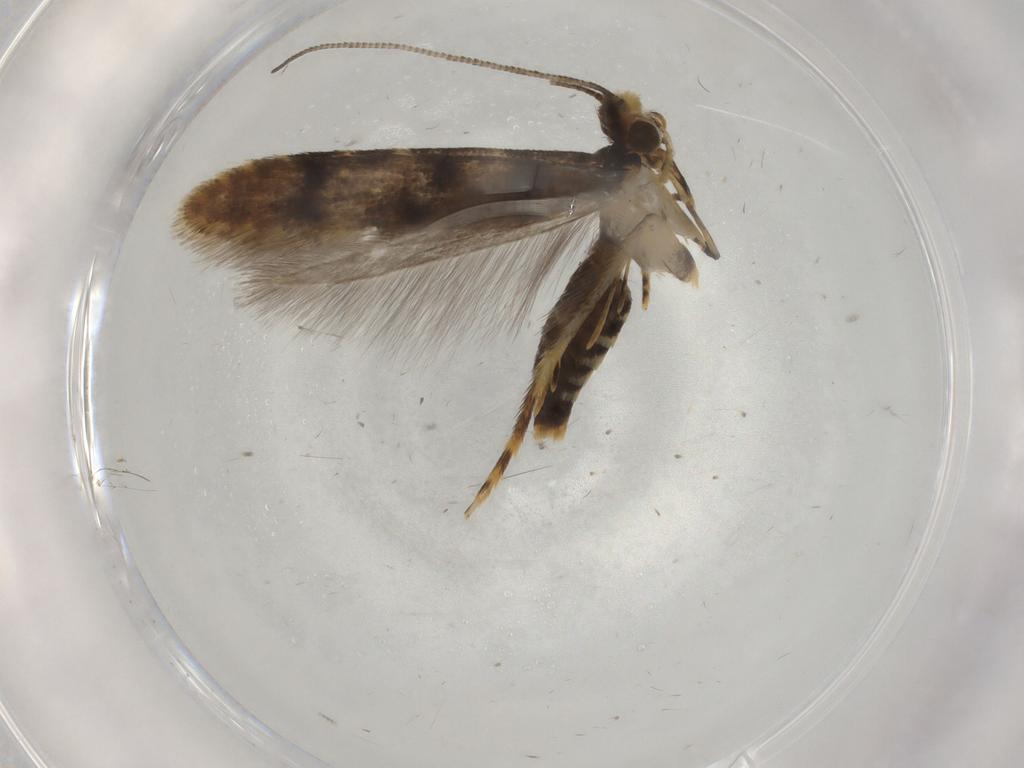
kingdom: Animalia
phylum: Arthropoda
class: Insecta
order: Lepidoptera
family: Tineidae
